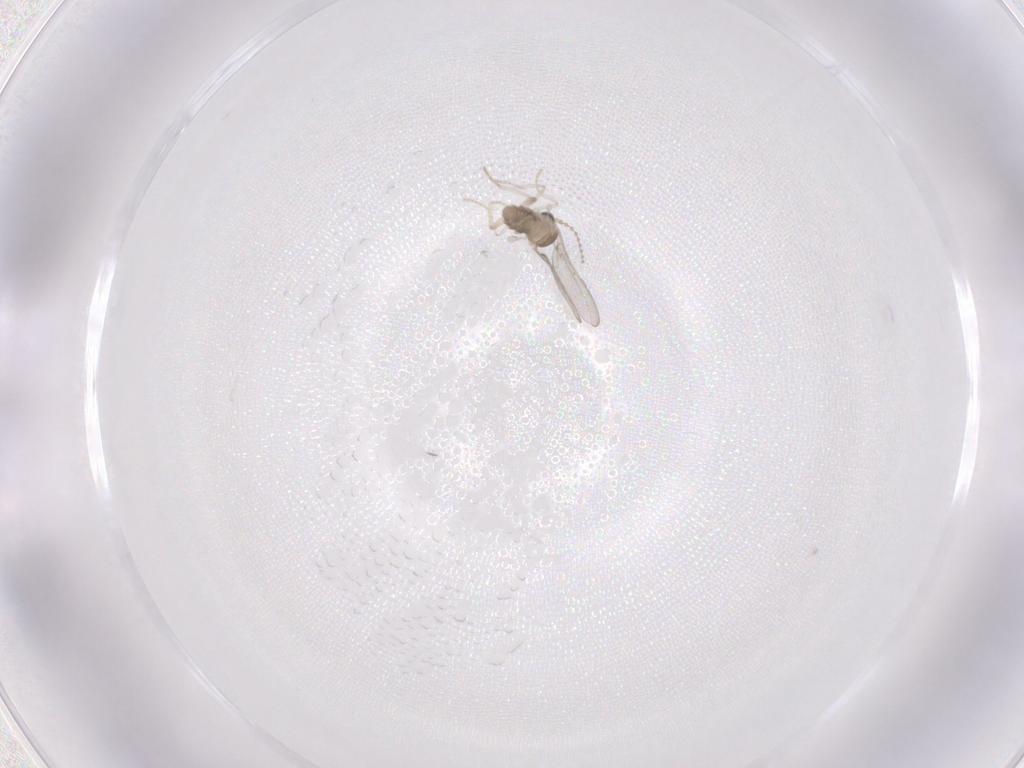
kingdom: Animalia
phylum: Arthropoda
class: Insecta
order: Diptera
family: Cecidomyiidae
